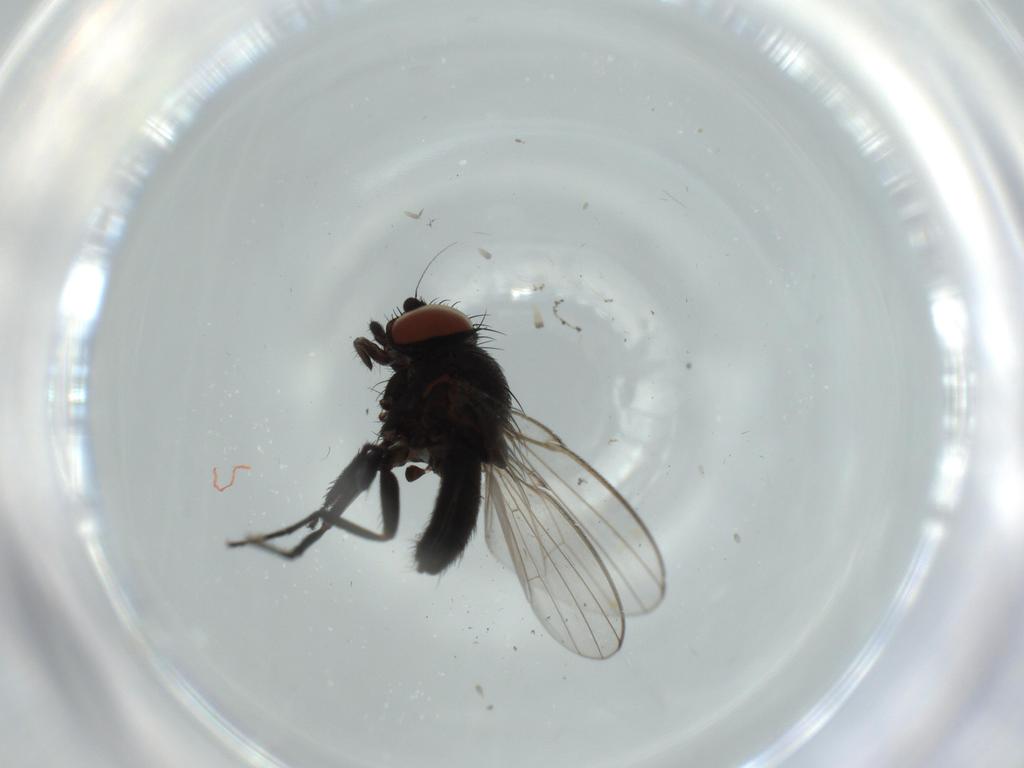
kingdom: Animalia
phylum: Arthropoda
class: Insecta
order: Diptera
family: Milichiidae
